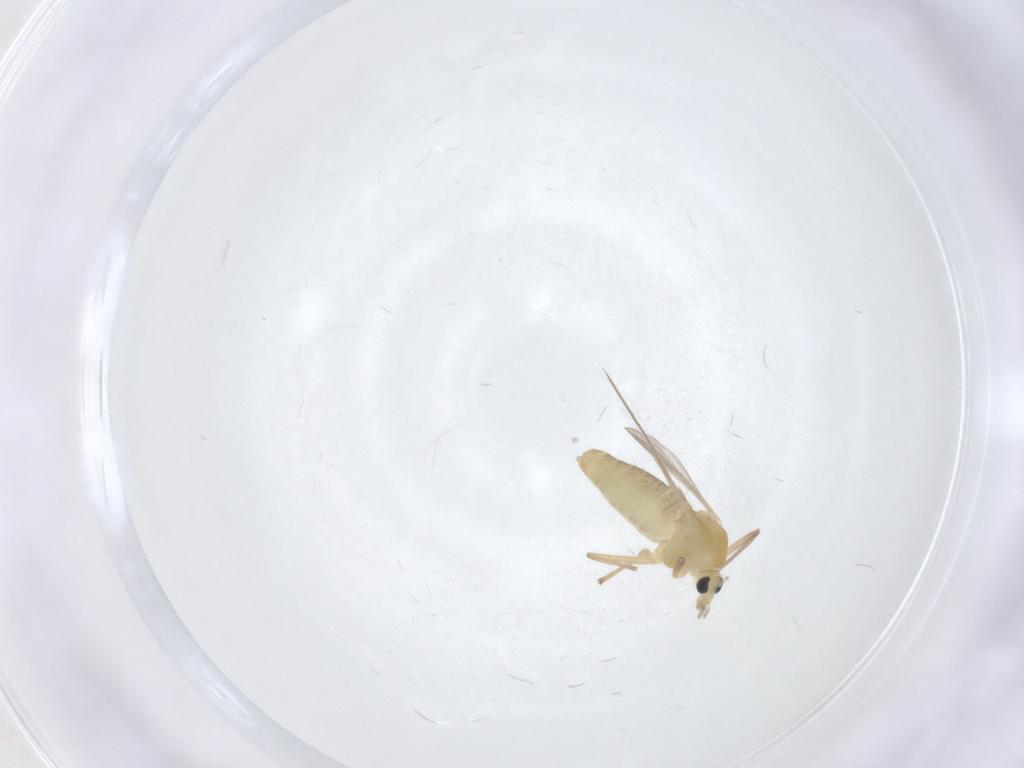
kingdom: Animalia
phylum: Arthropoda
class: Insecta
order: Diptera
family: Chironomidae
